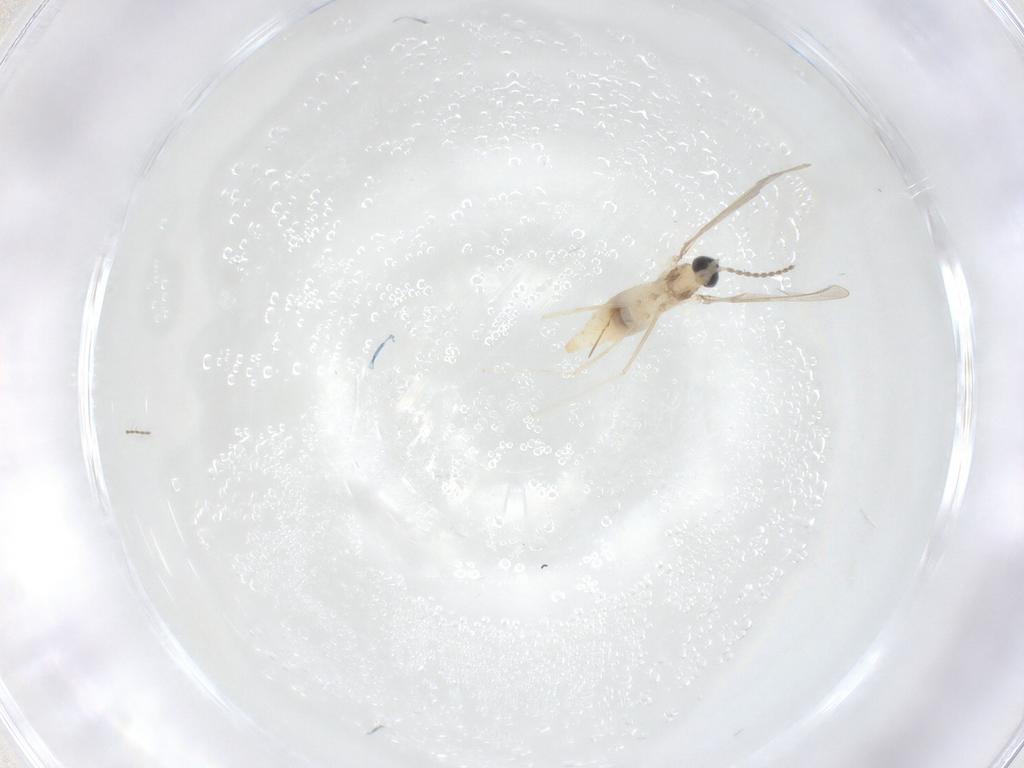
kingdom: Animalia
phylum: Arthropoda
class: Insecta
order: Diptera
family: Cecidomyiidae
